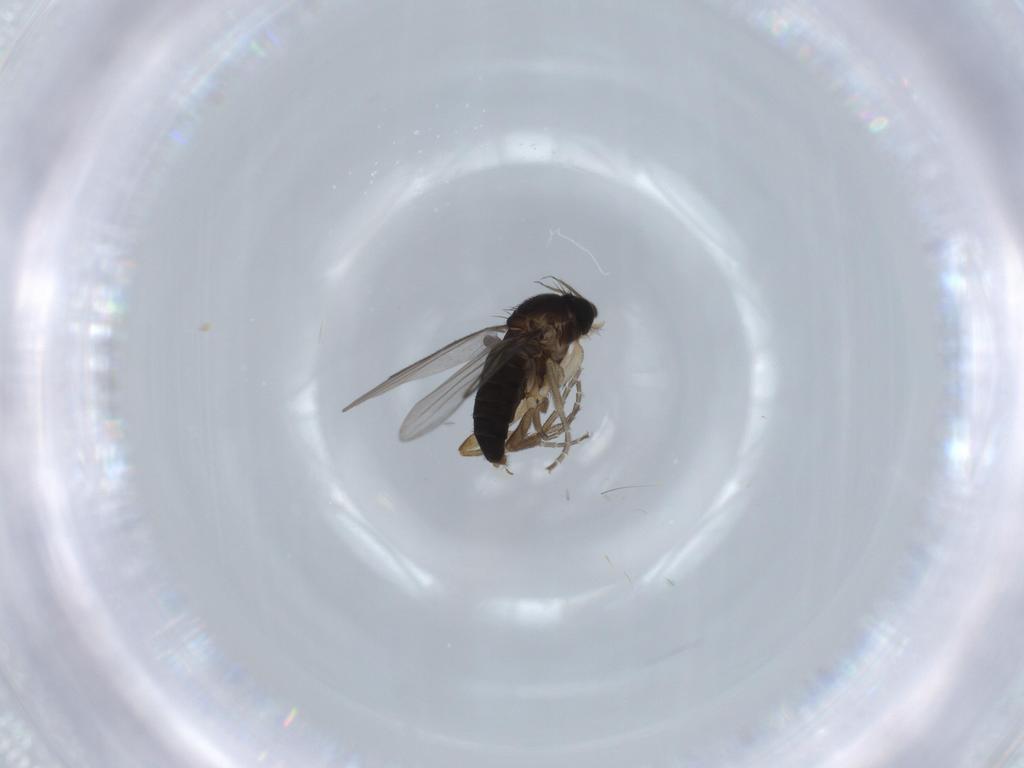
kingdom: Animalia
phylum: Arthropoda
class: Insecta
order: Diptera
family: Phoridae
